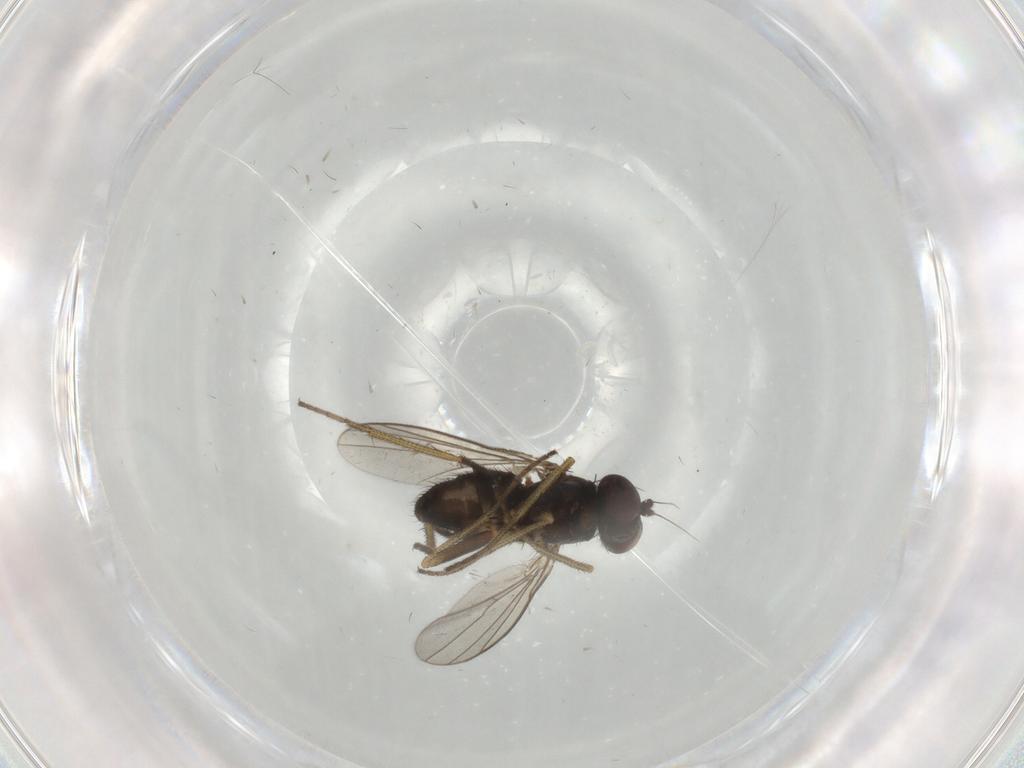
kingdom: Animalia
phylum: Arthropoda
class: Insecta
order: Diptera
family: Dolichopodidae
